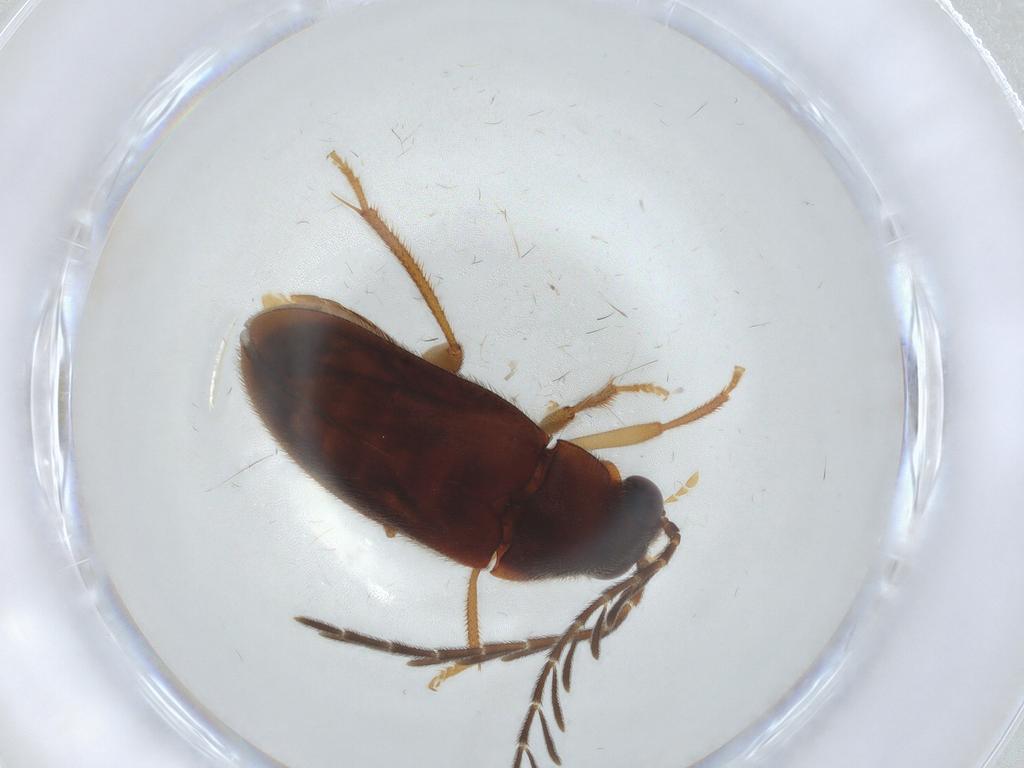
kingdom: Animalia
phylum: Arthropoda
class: Insecta
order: Coleoptera
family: Ptilodactylidae
